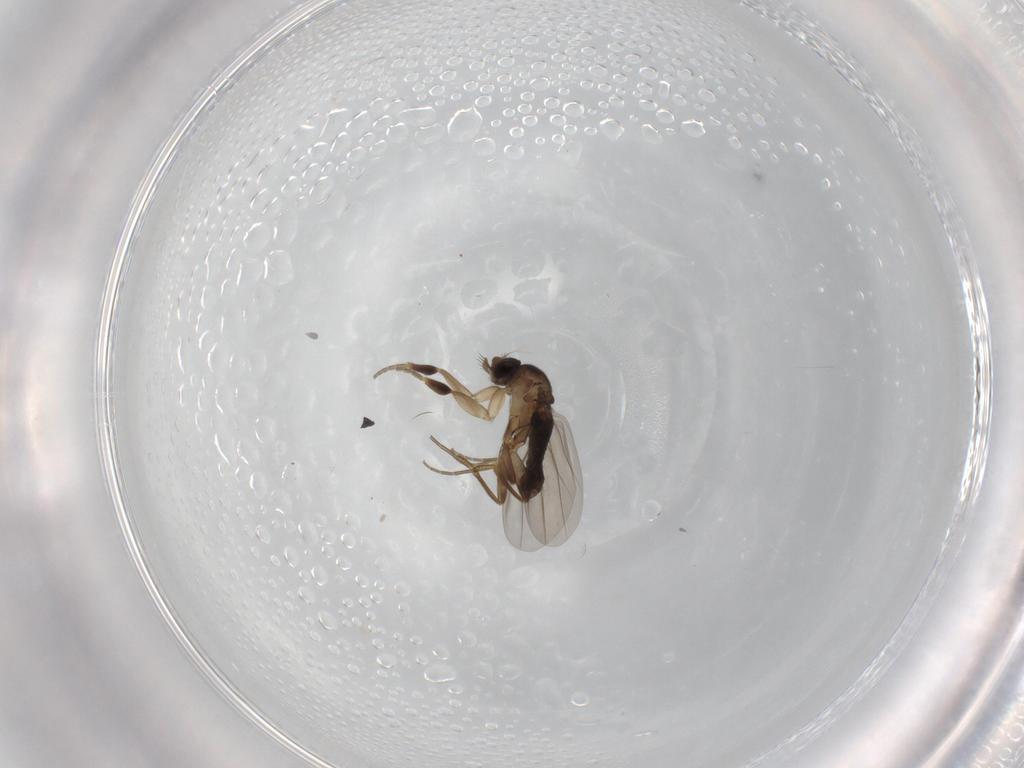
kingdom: Animalia
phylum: Arthropoda
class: Insecta
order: Diptera
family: Phoridae
